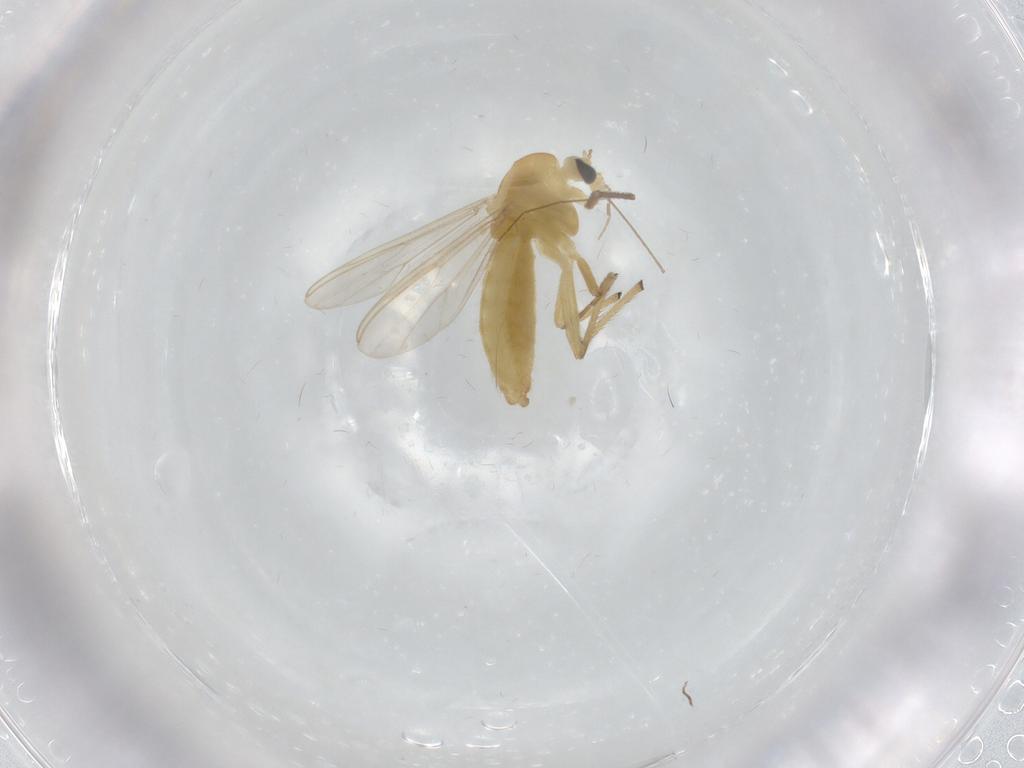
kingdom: Animalia
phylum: Arthropoda
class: Insecta
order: Diptera
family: Chironomidae
